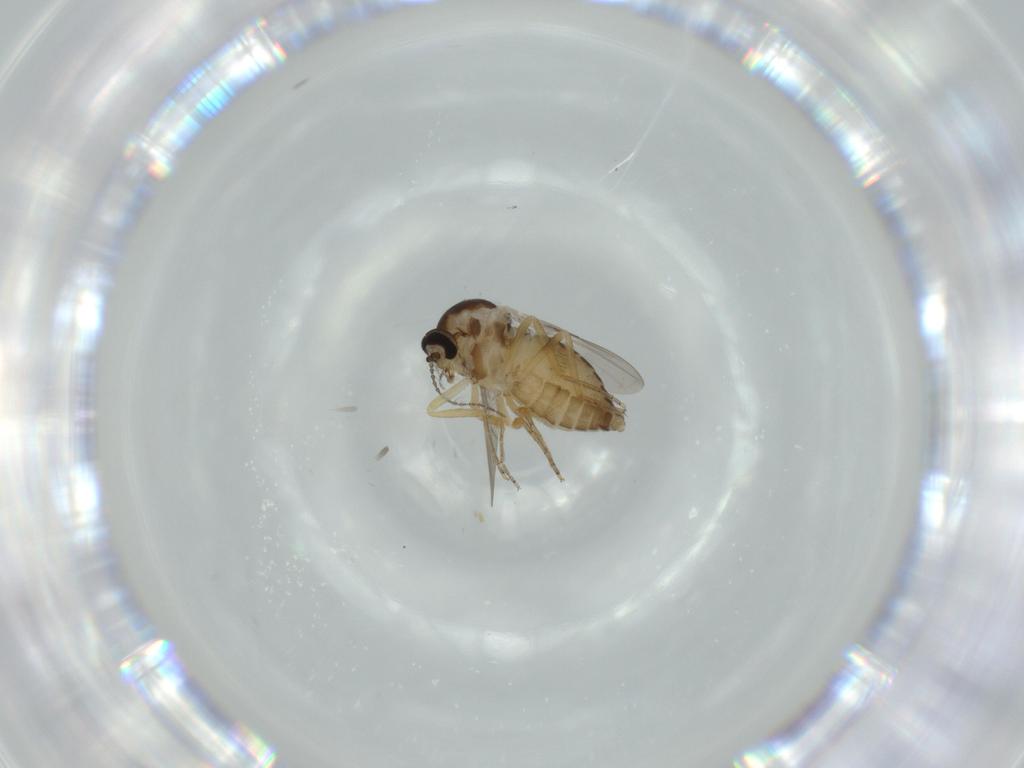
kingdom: Animalia
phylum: Arthropoda
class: Insecta
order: Diptera
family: Ceratopogonidae
